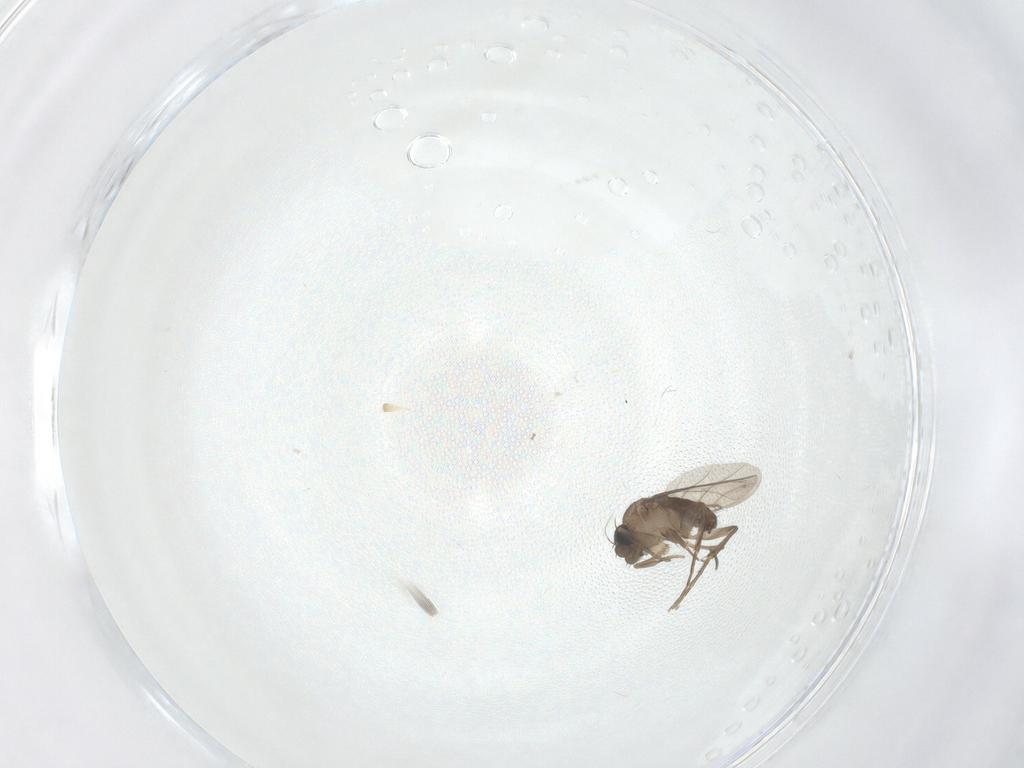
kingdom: Animalia
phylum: Arthropoda
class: Insecta
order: Diptera
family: Phoridae
